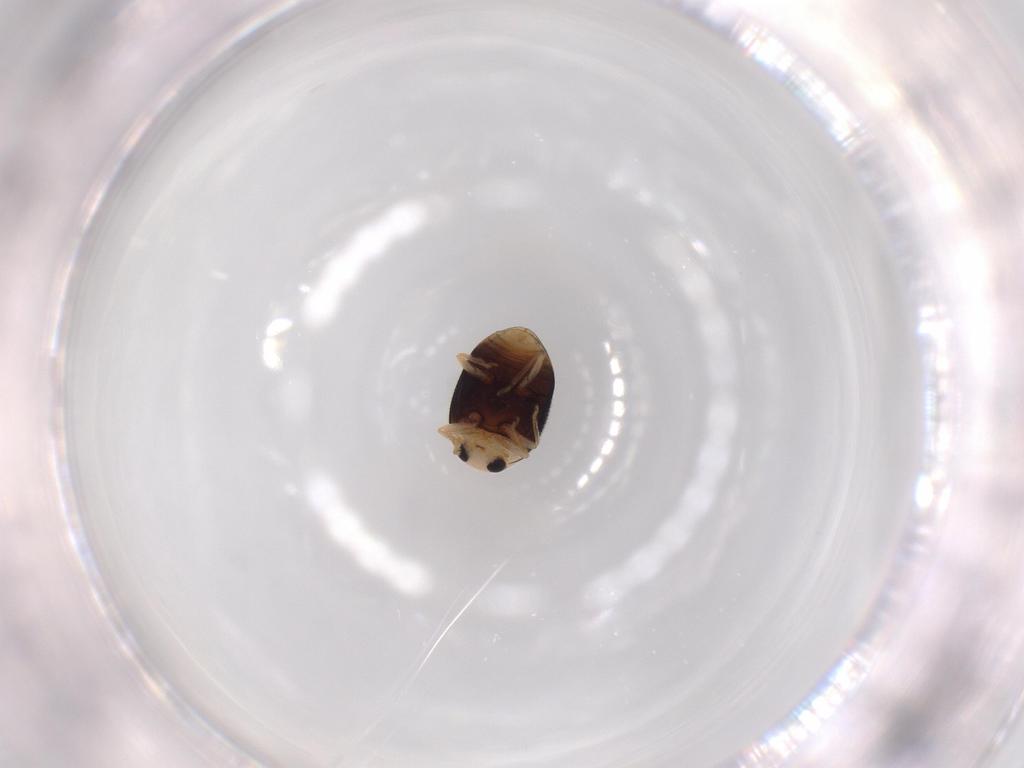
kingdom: Animalia
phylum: Arthropoda
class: Insecta
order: Coleoptera
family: Coccinellidae
